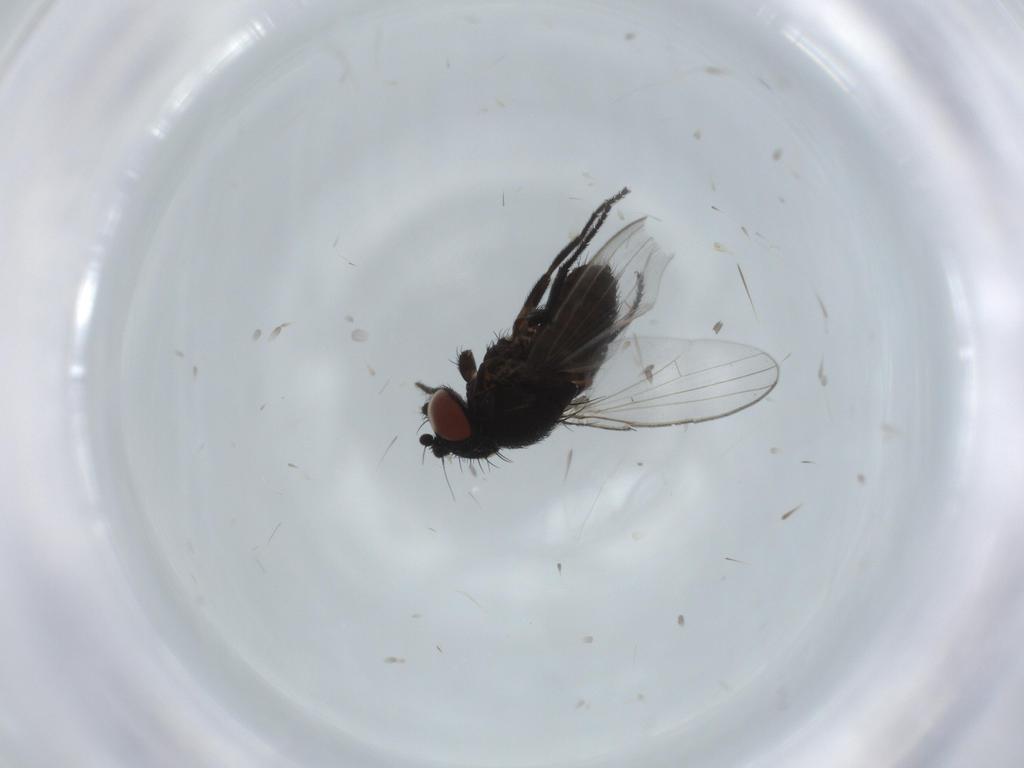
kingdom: Animalia
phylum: Arthropoda
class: Insecta
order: Diptera
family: Milichiidae
